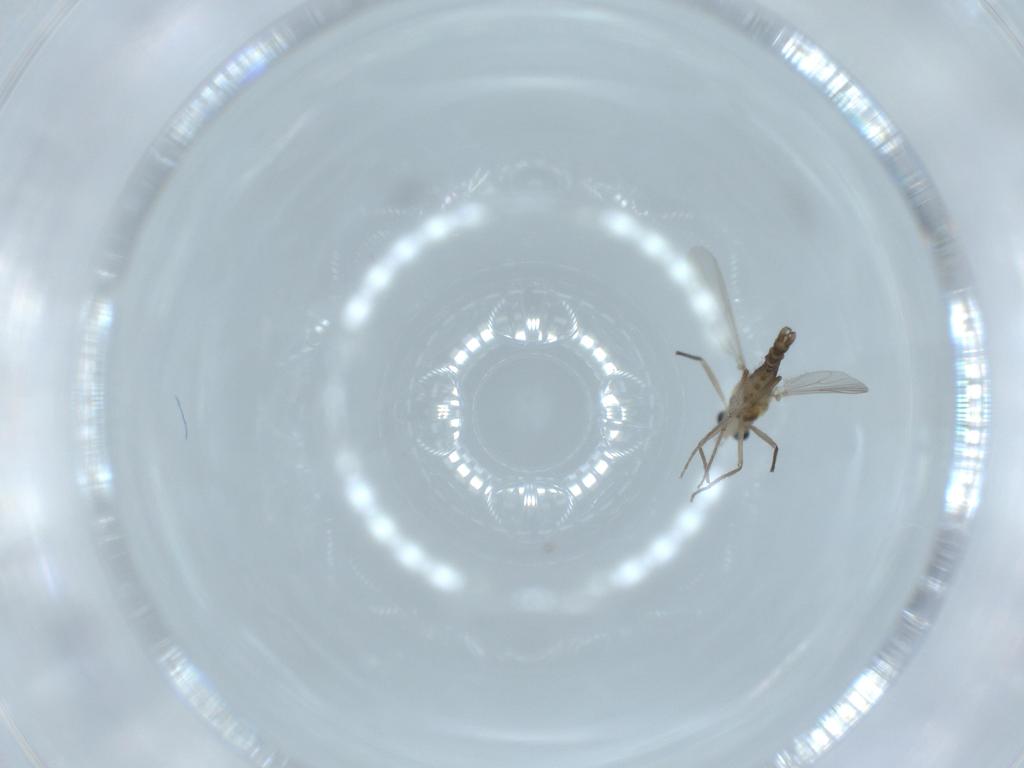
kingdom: Animalia
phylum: Arthropoda
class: Insecta
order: Diptera
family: Chironomidae
